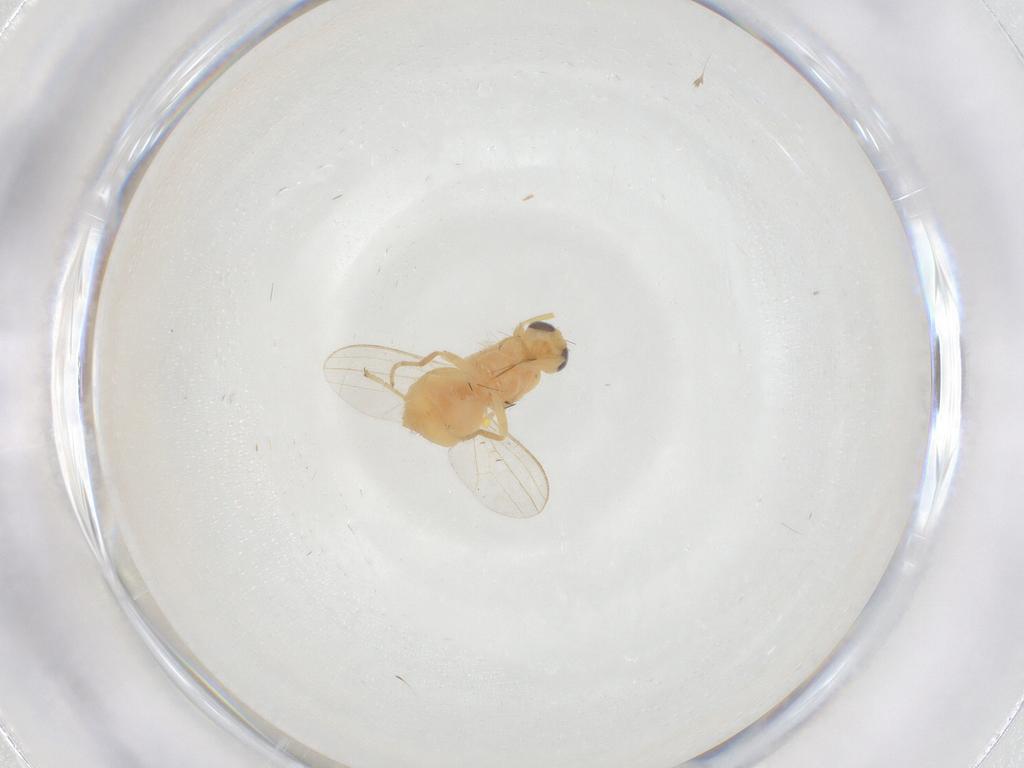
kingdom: Animalia
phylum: Arthropoda
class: Insecta
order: Diptera
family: Chyromyidae
